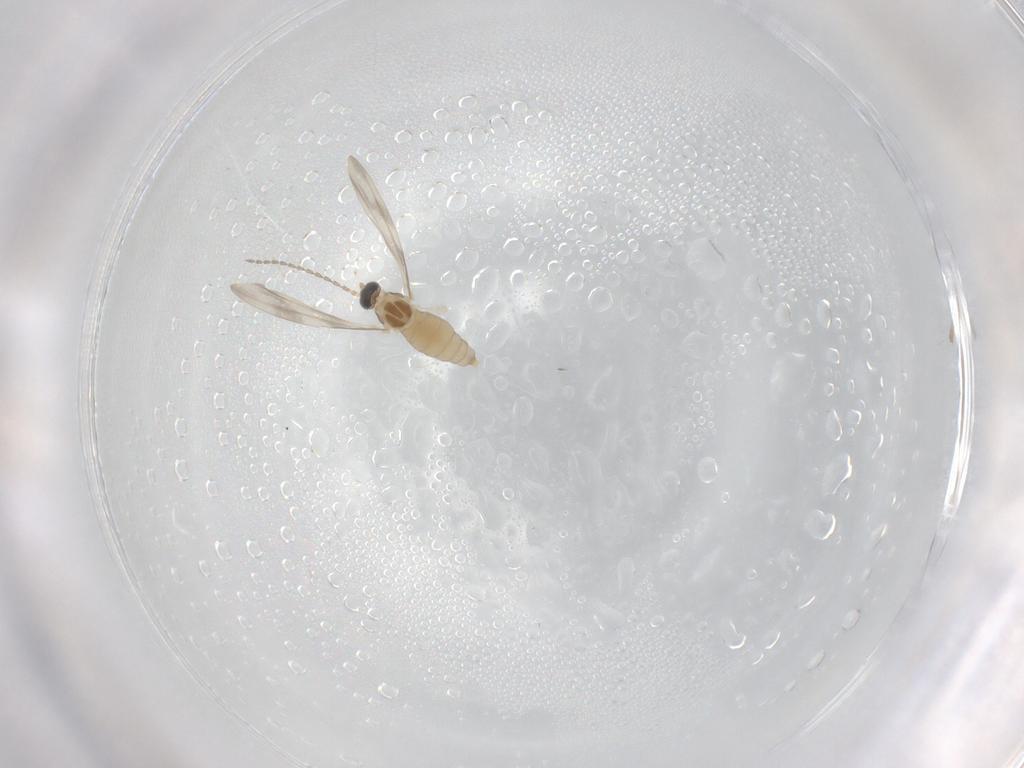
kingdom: Animalia
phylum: Arthropoda
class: Insecta
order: Diptera
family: Cecidomyiidae
